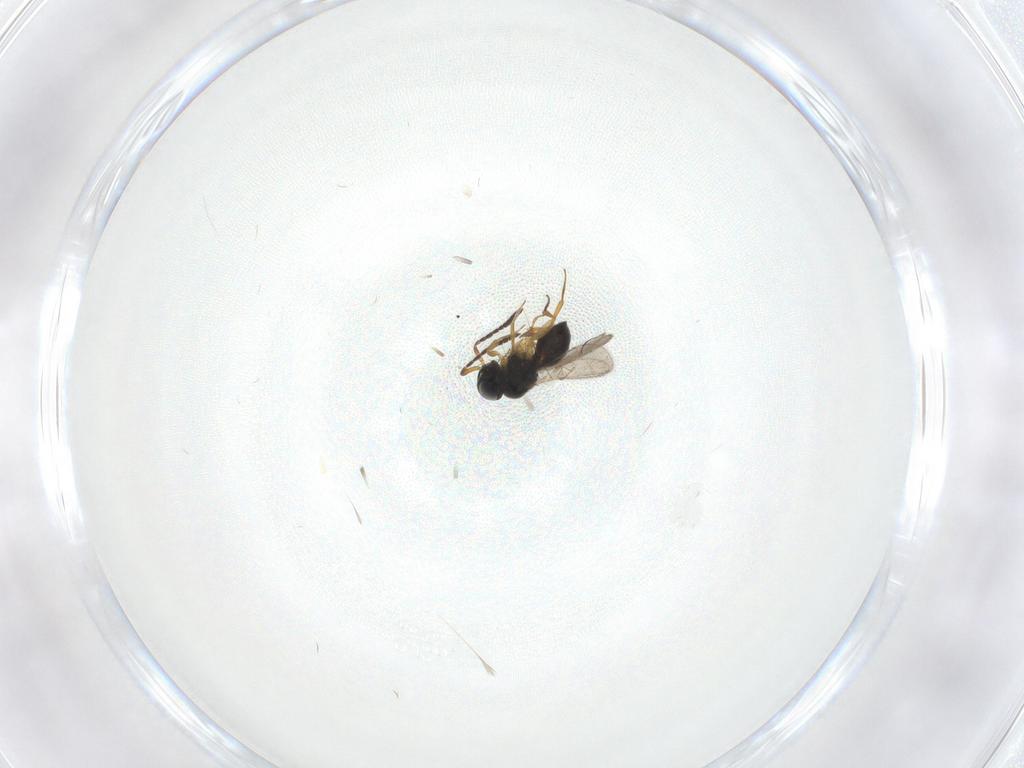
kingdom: Animalia
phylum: Arthropoda
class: Insecta
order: Hymenoptera
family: Scelionidae
